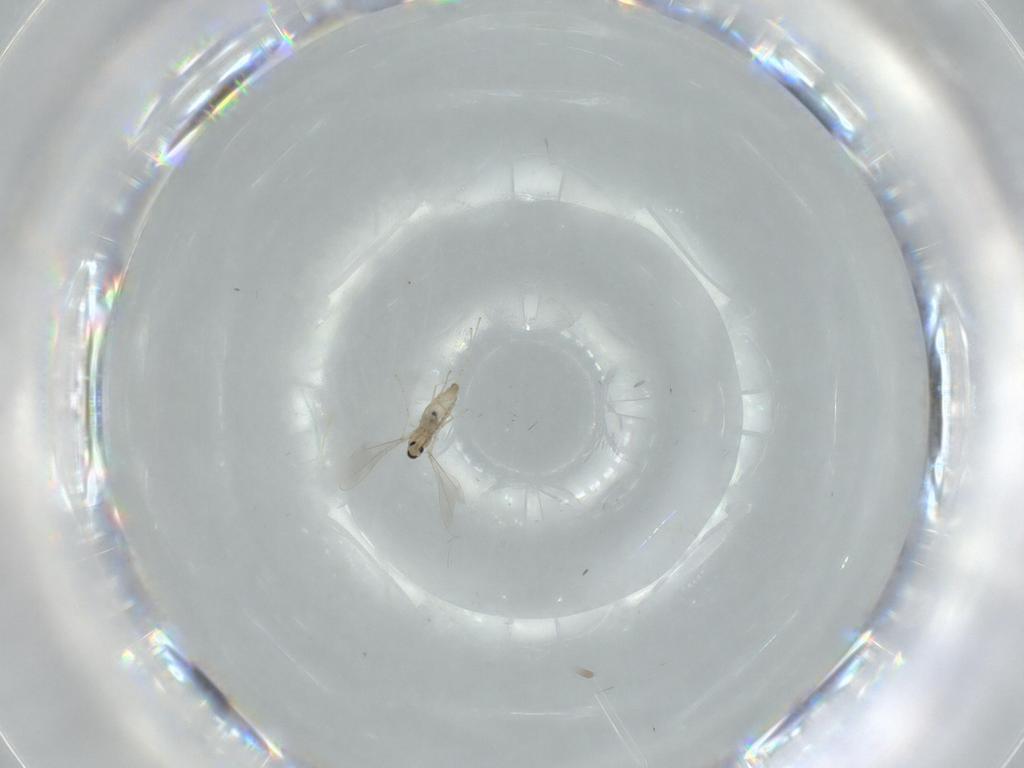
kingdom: Animalia
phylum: Arthropoda
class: Insecta
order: Diptera
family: Cecidomyiidae
